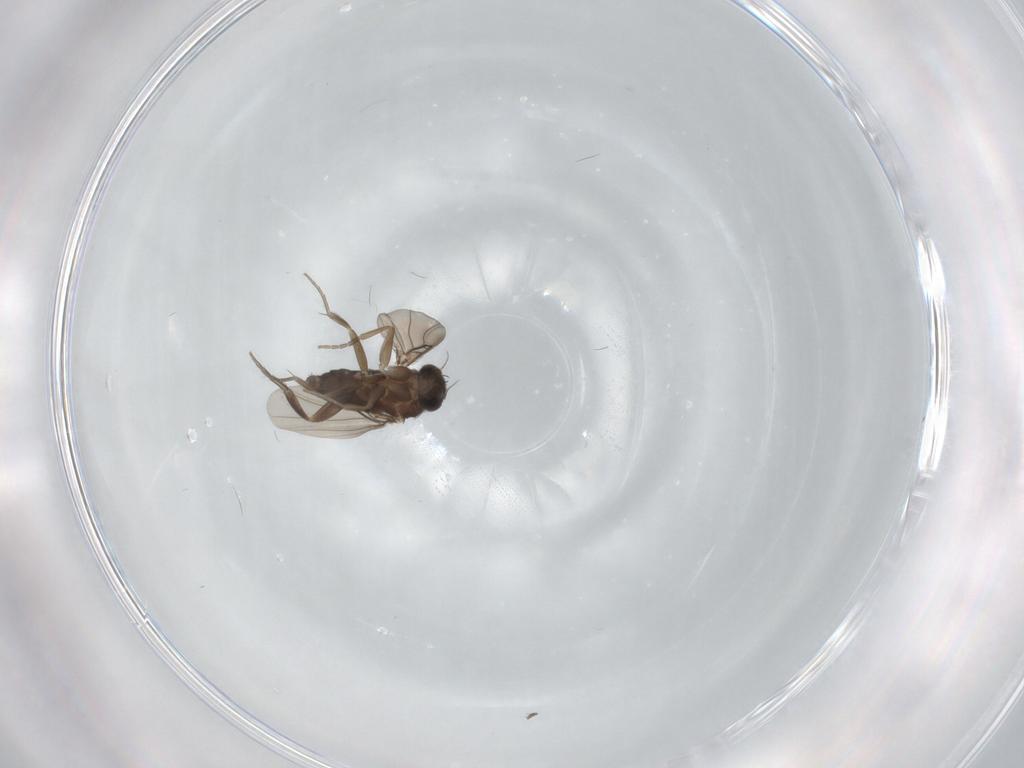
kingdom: Animalia
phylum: Arthropoda
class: Insecta
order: Diptera
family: Phoridae
